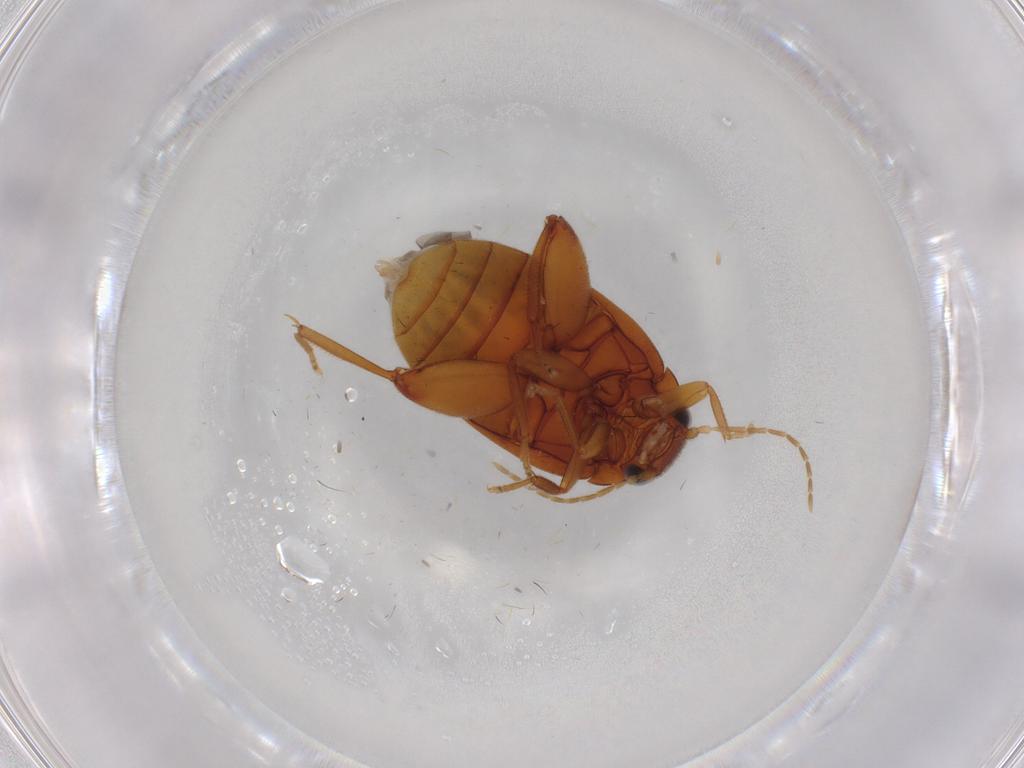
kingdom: Animalia
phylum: Arthropoda
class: Insecta
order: Coleoptera
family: Scirtidae
